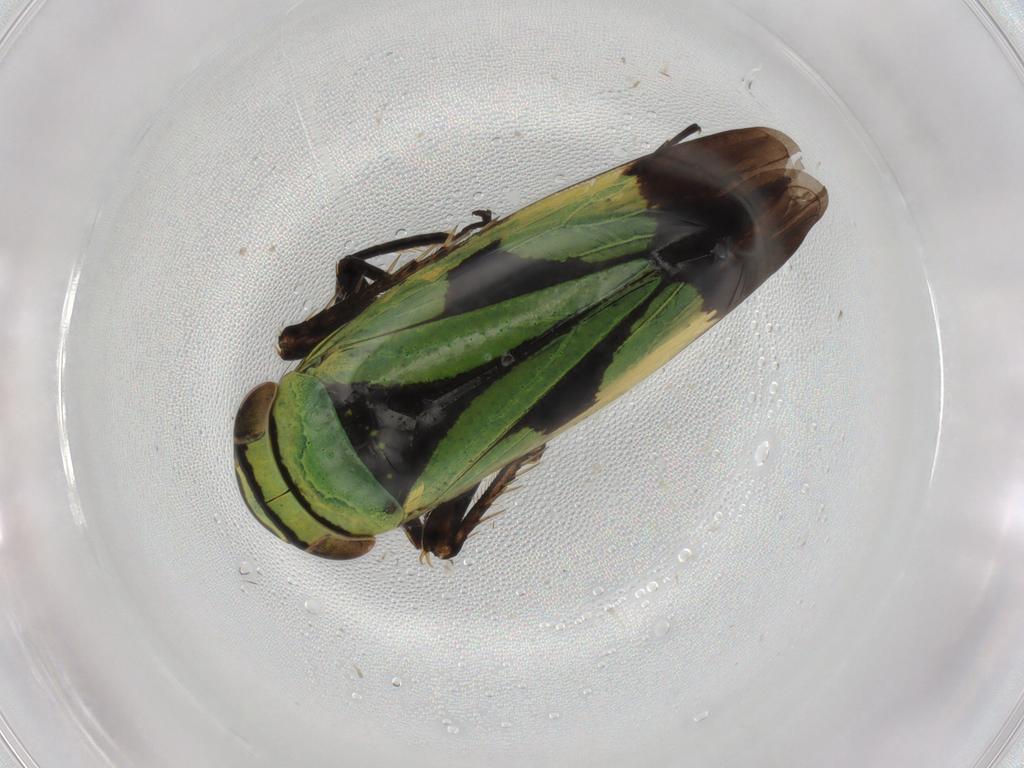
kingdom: Animalia
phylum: Arthropoda
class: Insecta
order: Hemiptera
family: Cicadellidae
